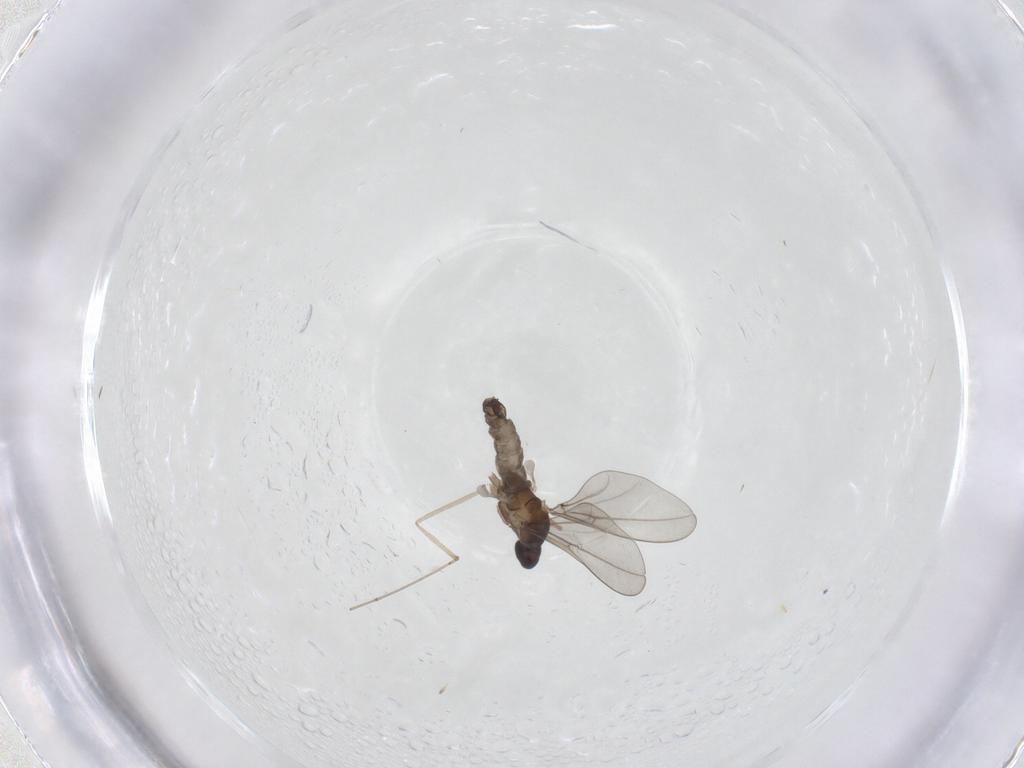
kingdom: Animalia
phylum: Arthropoda
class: Insecta
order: Diptera
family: Cecidomyiidae
